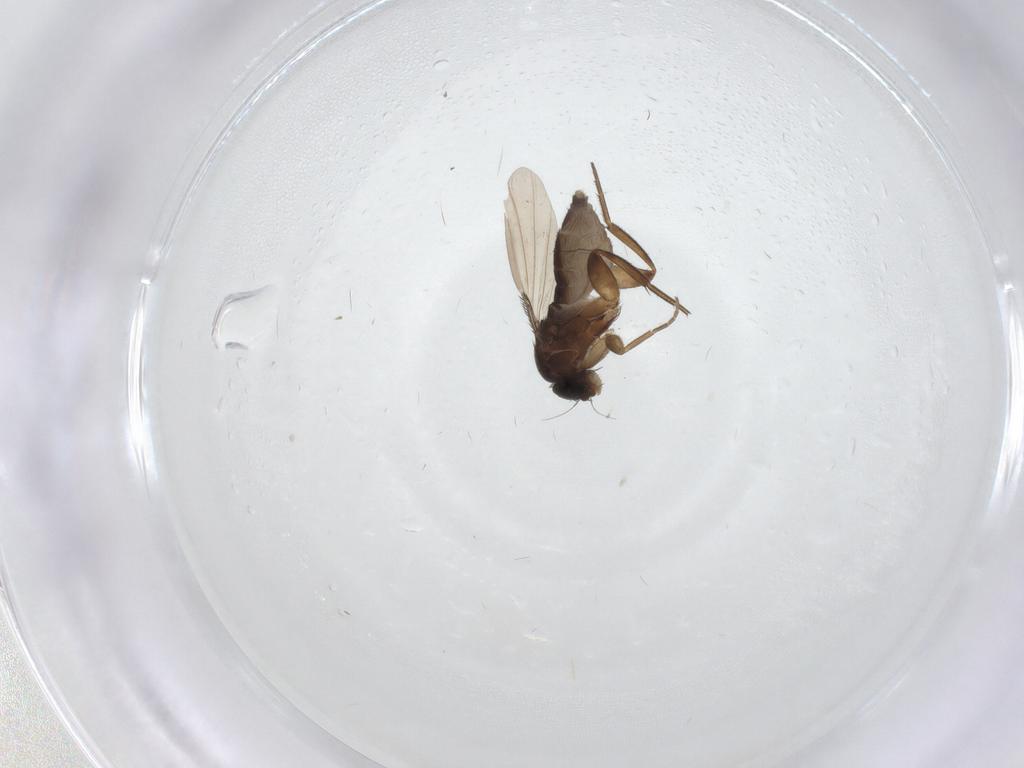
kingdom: Animalia
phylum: Arthropoda
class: Insecta
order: Diptera
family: Phoridae
